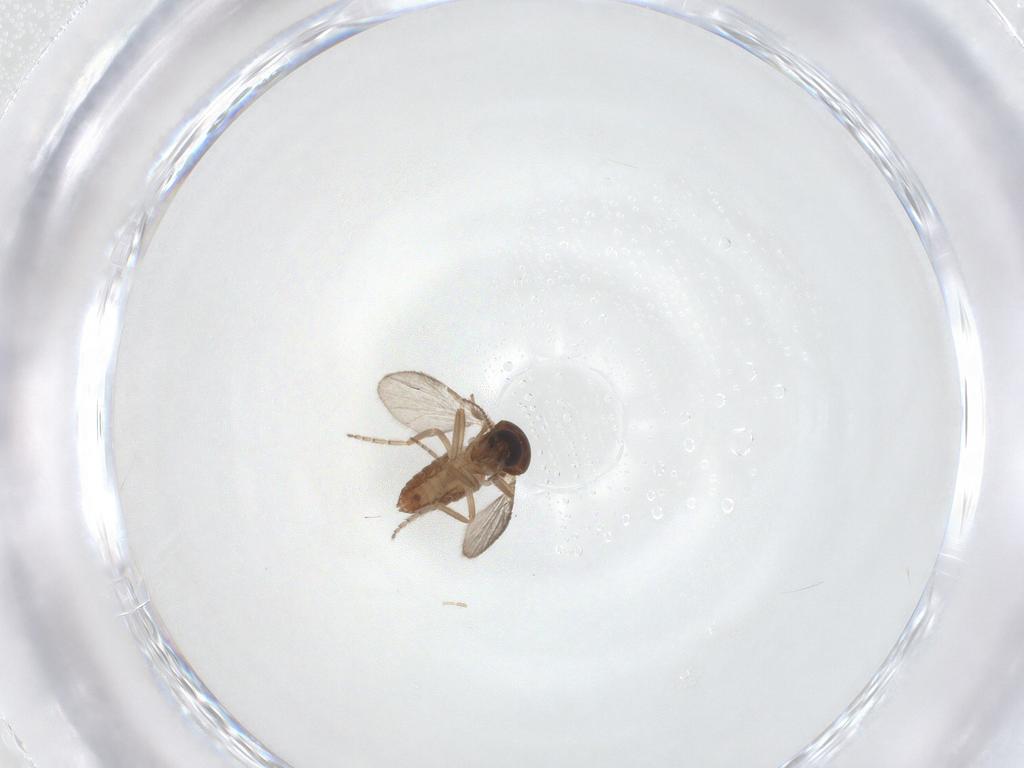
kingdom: Animalia
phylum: Arthropoda
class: Insecta
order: Diptera
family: Ceratopogonidae
